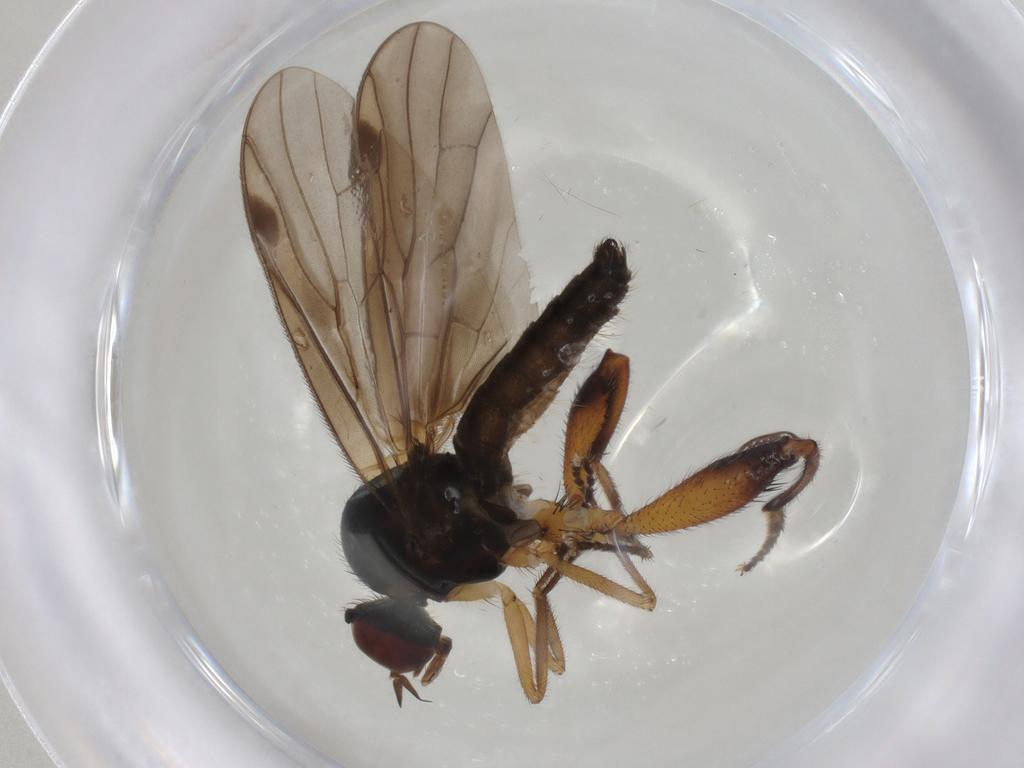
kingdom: Animalia
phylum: Arthropoda
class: Insecta
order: Diptera
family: Hybotidae
